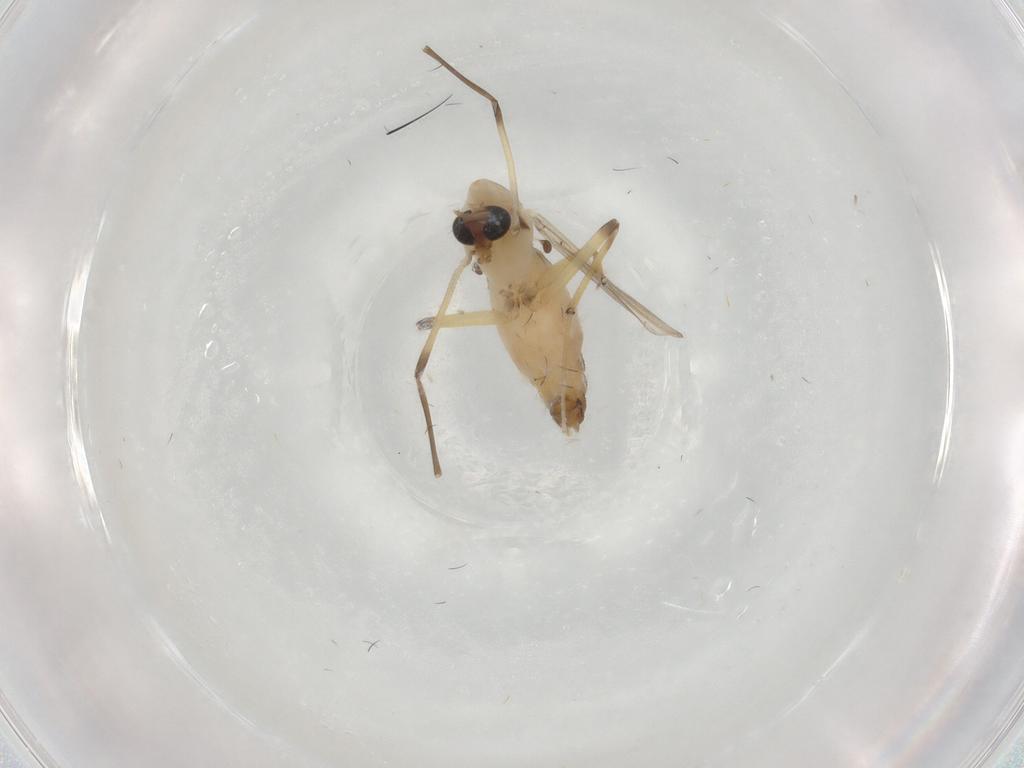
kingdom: Animalia
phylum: Arthropoda
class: Insecta
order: Diptera
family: Chironomidae
